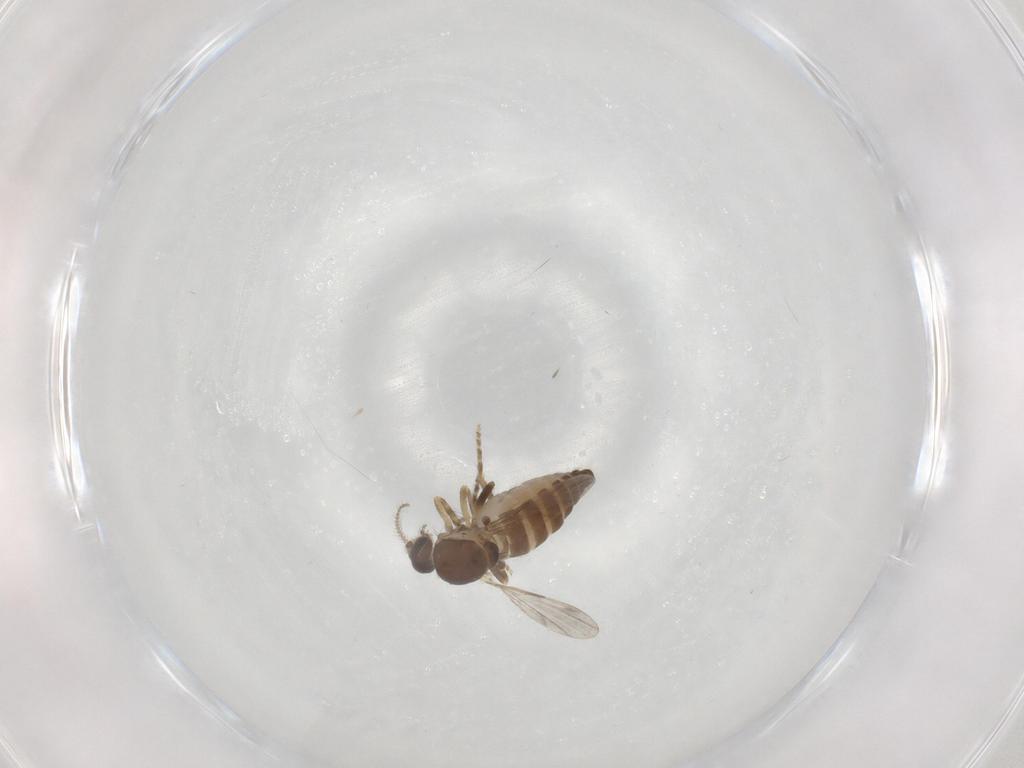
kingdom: Animalia
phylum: Arthropoda
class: Insecta
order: Diptera
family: Ceratopogonidae
